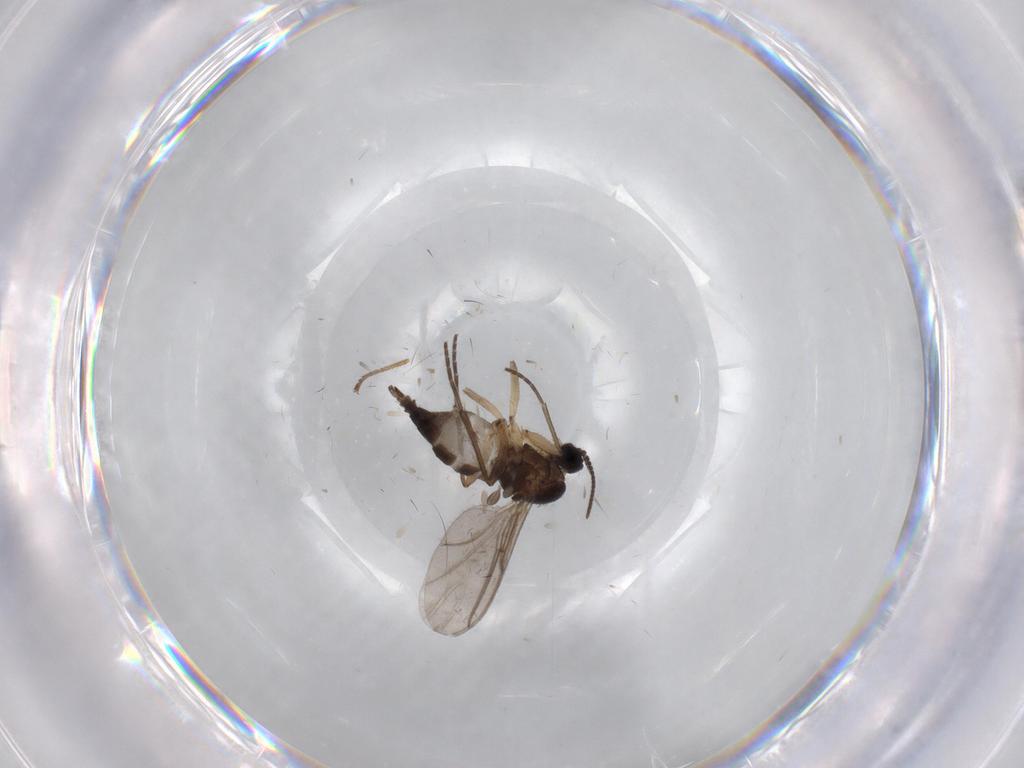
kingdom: Animalia
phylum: Arthropoda
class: Insecta
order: Diptera
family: Sciaridae
